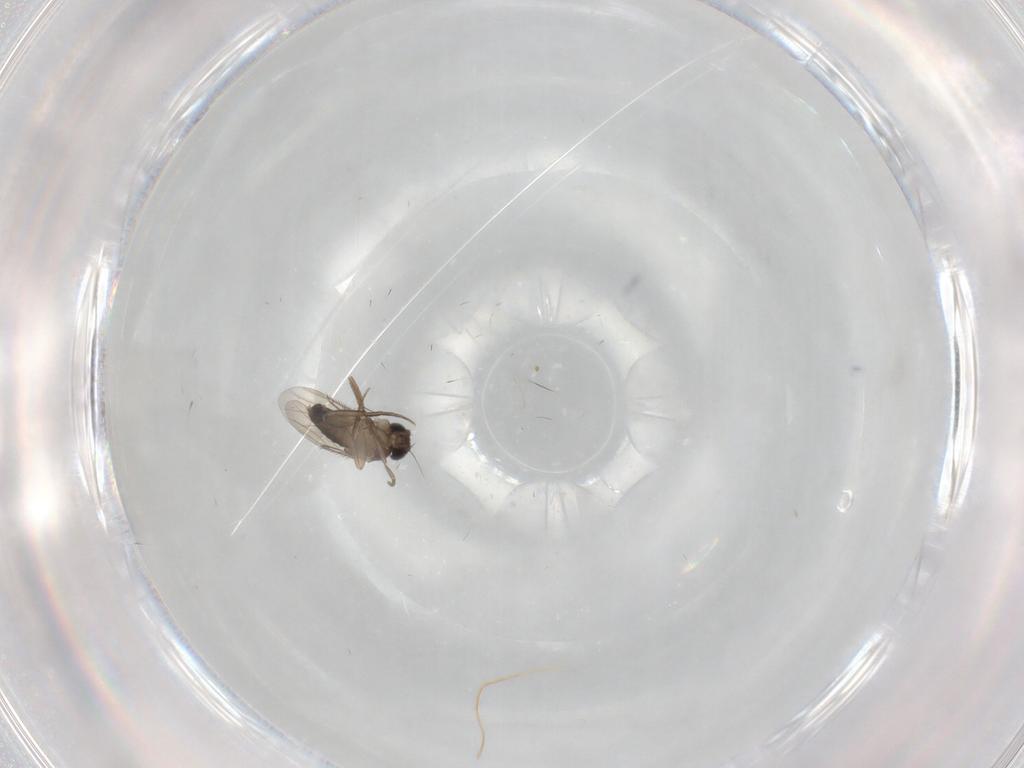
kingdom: Animalia
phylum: Arthropoda
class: Insecta
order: Diptera
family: Phoridae
